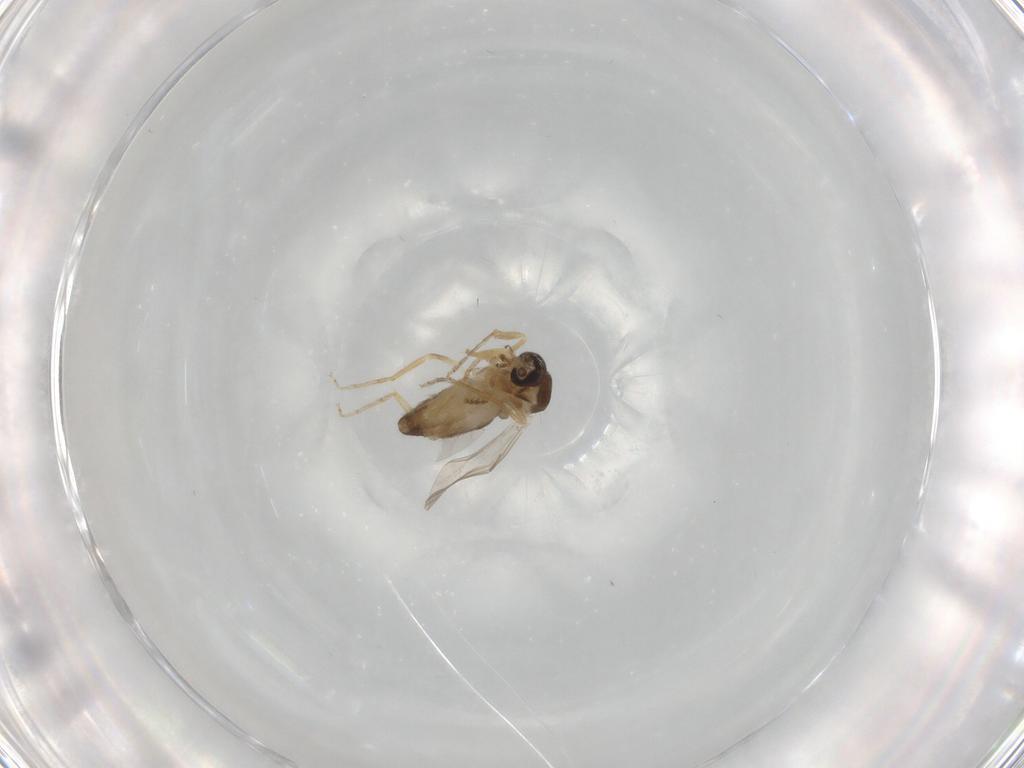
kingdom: Animalia
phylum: Arthropoda
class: Insecta
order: Diptera
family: Ceratopogonidae
